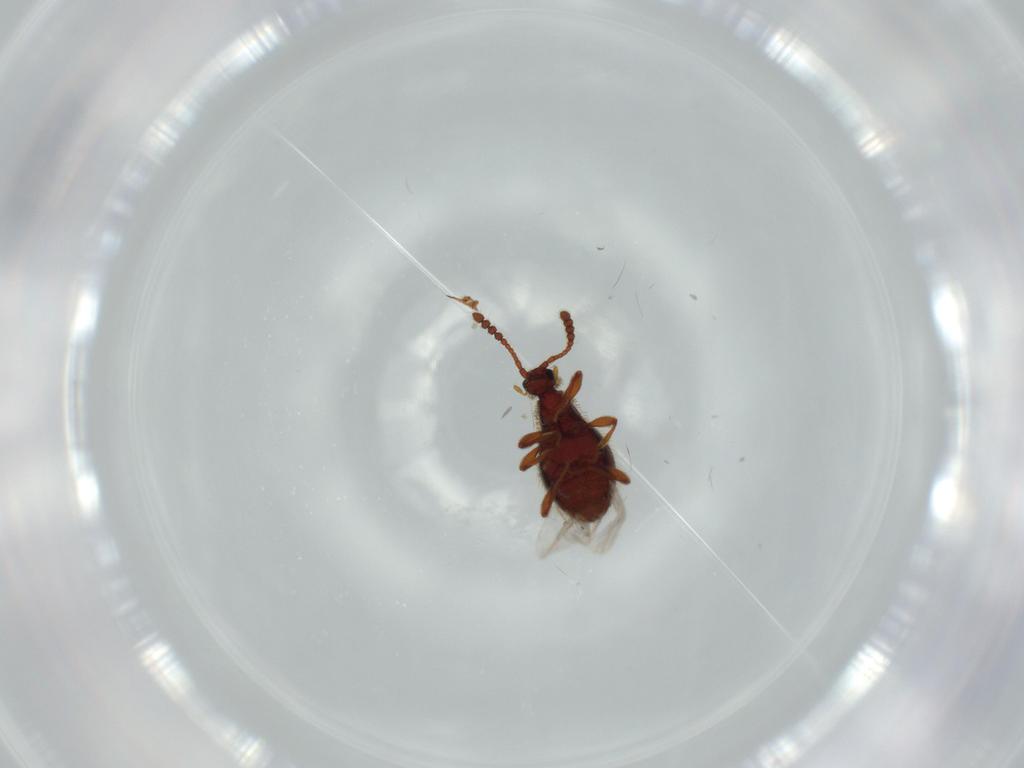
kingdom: Animalia
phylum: Arthropoda
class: Insecta
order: Coleoptera
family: Staphylinidae
